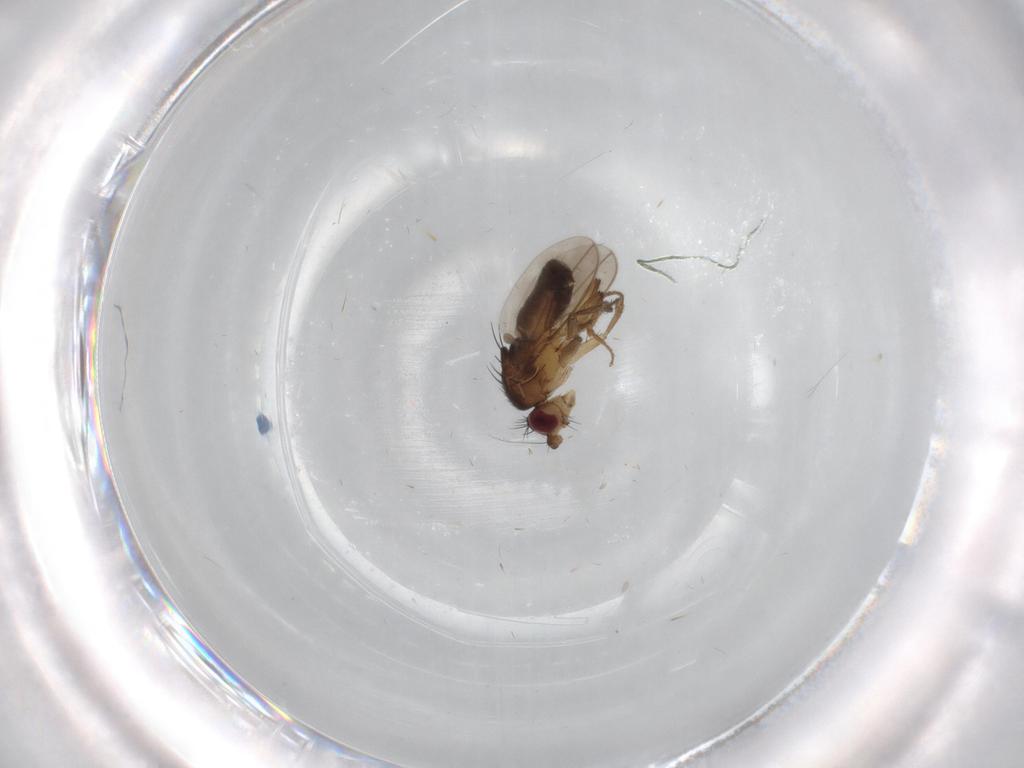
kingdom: Animalia
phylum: Arthropoda
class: Insecta
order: Diptera
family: Sphaeroceridae
